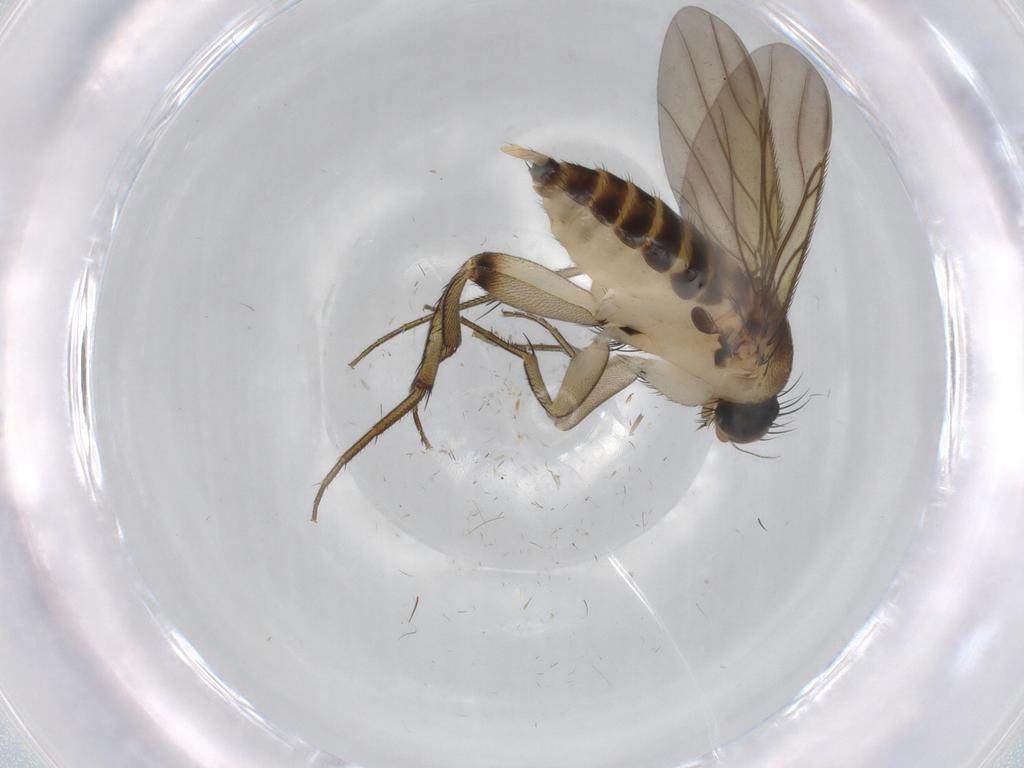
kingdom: Animalia
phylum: Arthropoda
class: Insecta
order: Diptera
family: Phoridae
